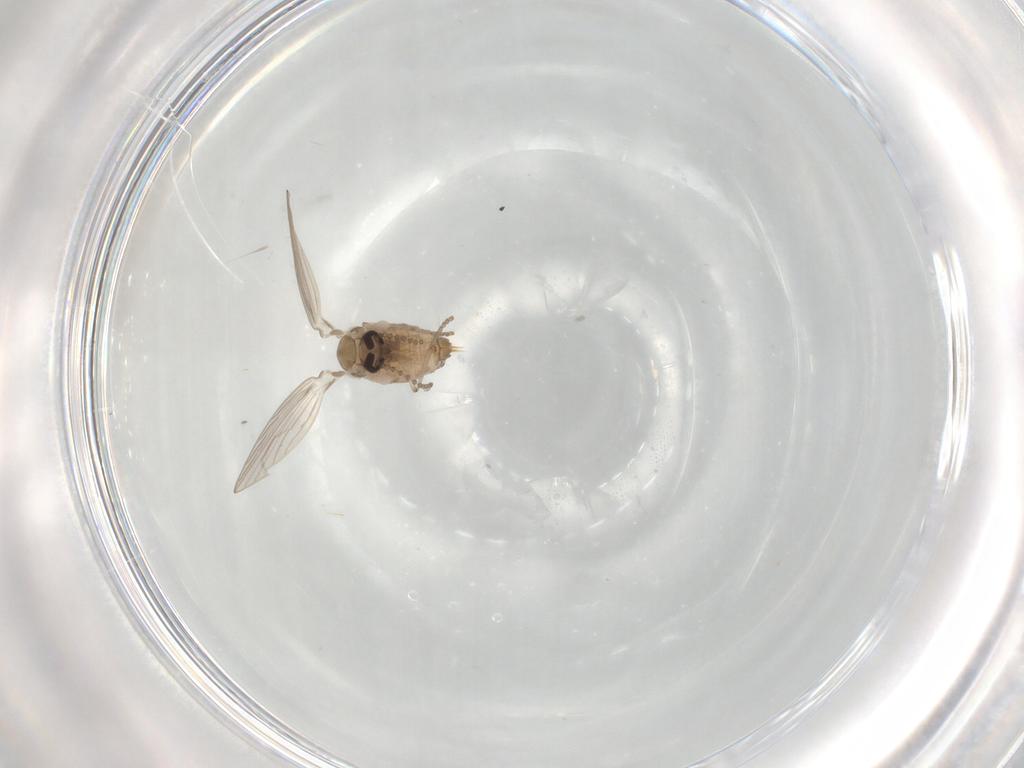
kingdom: Animalia
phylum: Arthropoda
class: Insecta
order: Diptera
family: Psychodidae
